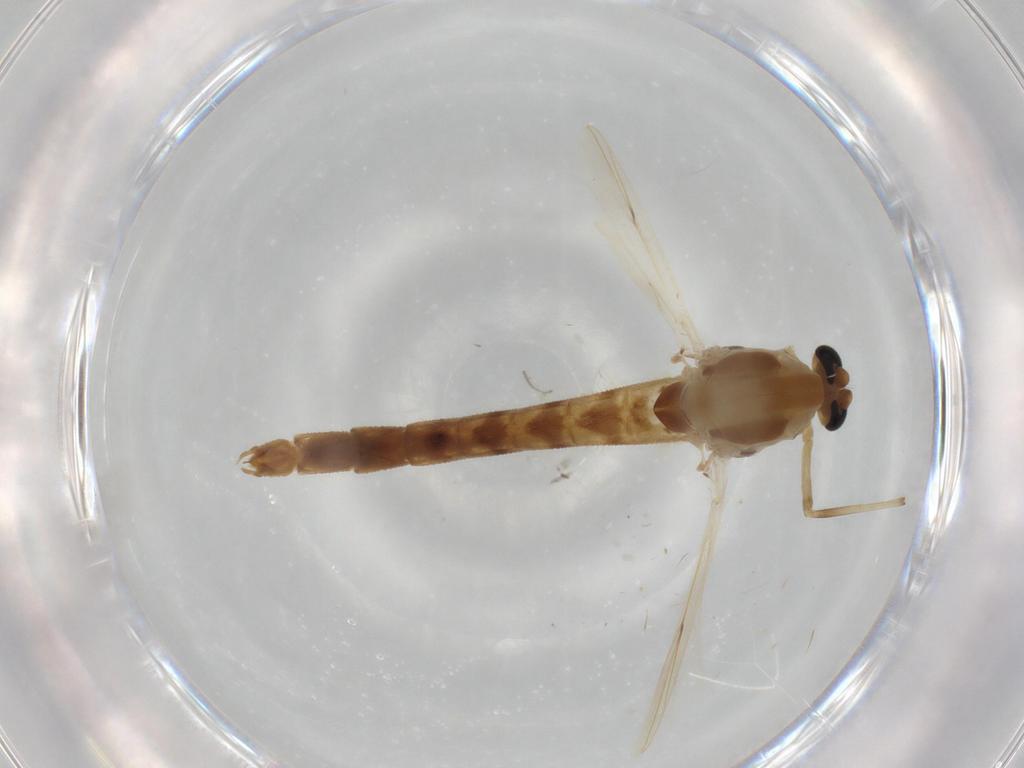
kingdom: Animalia
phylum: Arthropoda
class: Insecta
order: Diptera
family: Chironomidae
